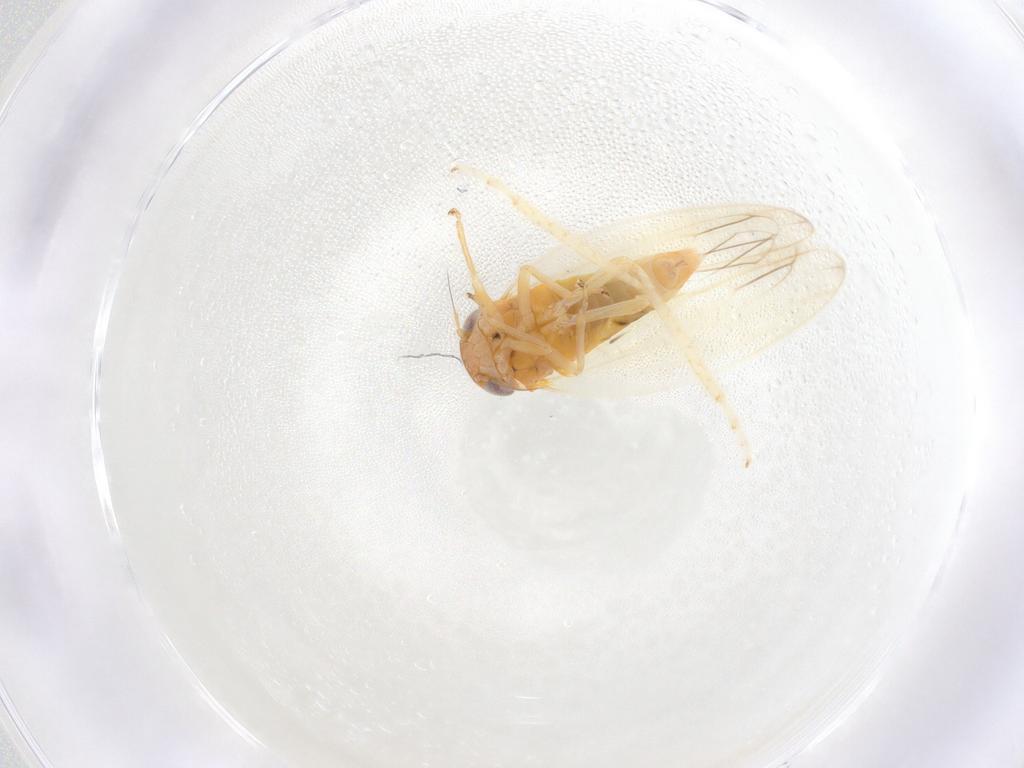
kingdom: Animalia
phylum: Arthropoda
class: Insecta
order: Hemiptera
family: Cicadellidae
